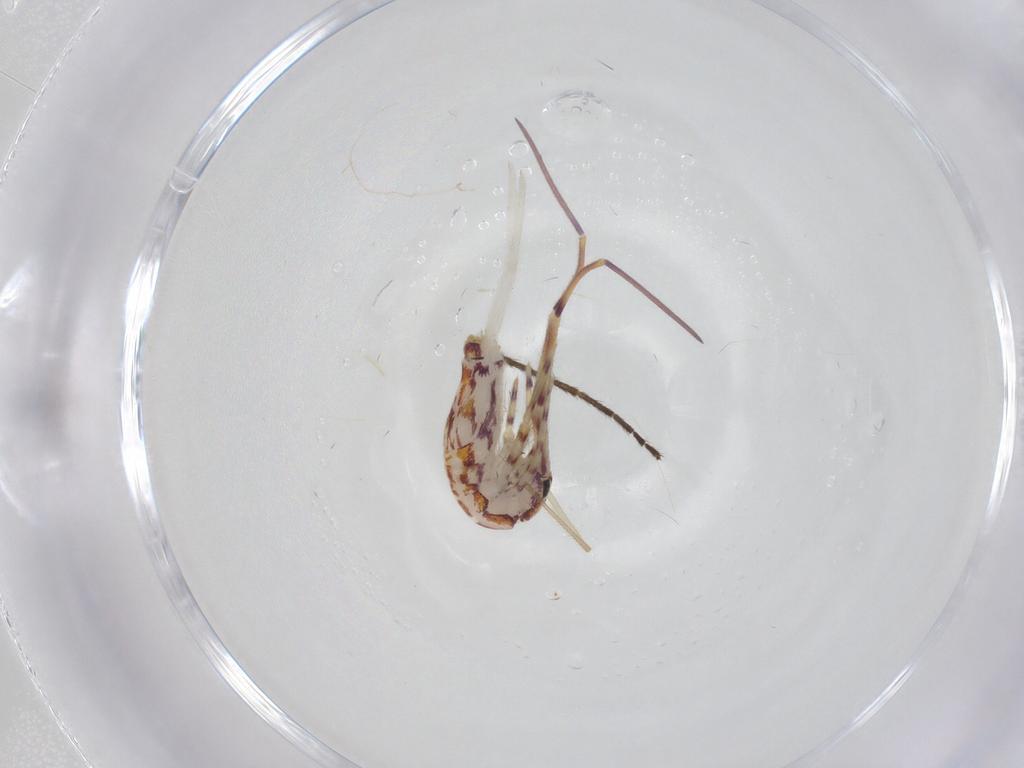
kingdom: Animalia
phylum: Arthropoda
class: Collembola
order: Entomobryomorpha
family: Entomobryidae
